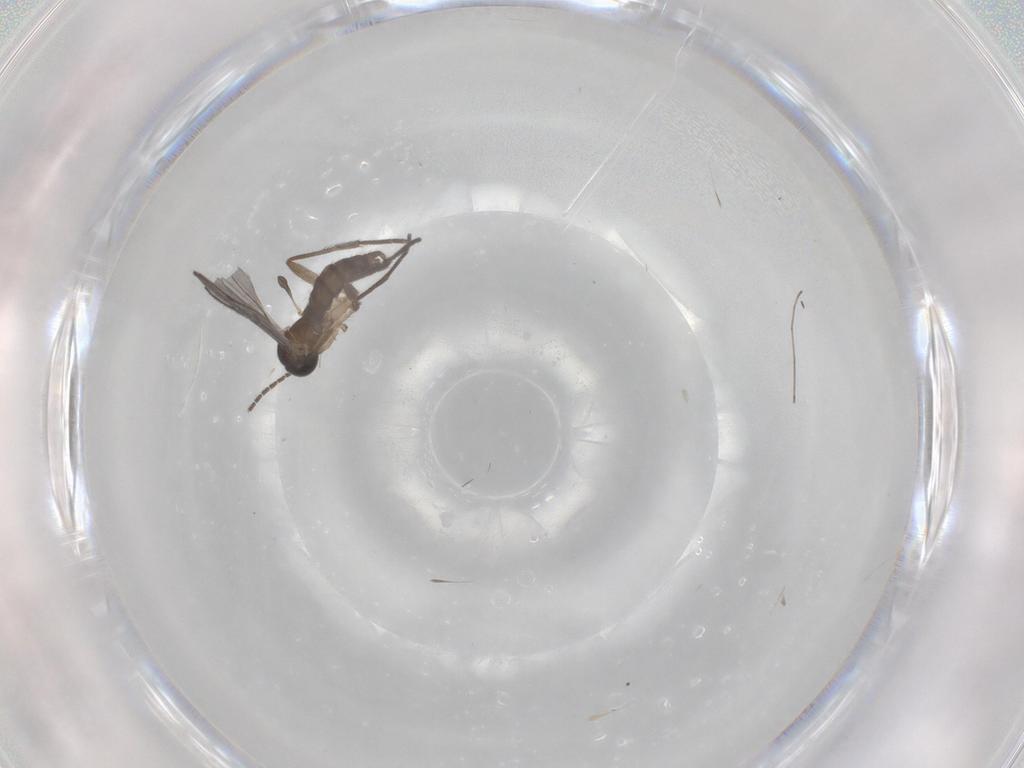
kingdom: Animalia
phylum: Arthropoda
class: Insecta
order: Diptera
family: Sciaridae
